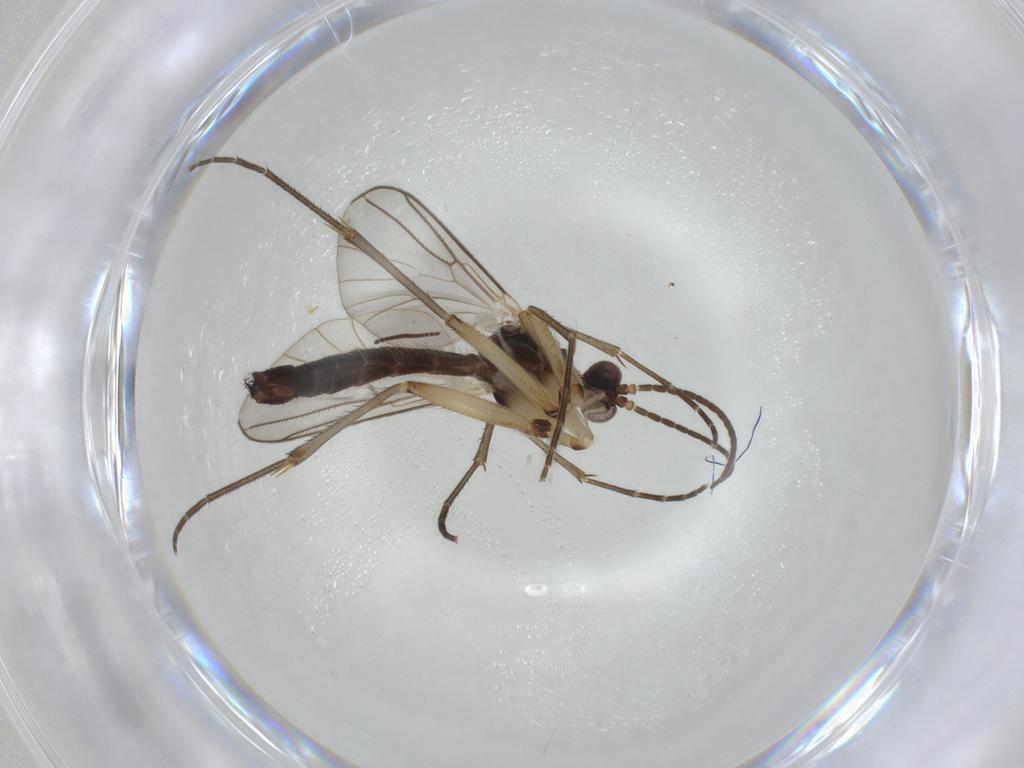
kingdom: Animalia
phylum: Arthropoda
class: Insecta
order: Diptera
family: Mycetophilidae
